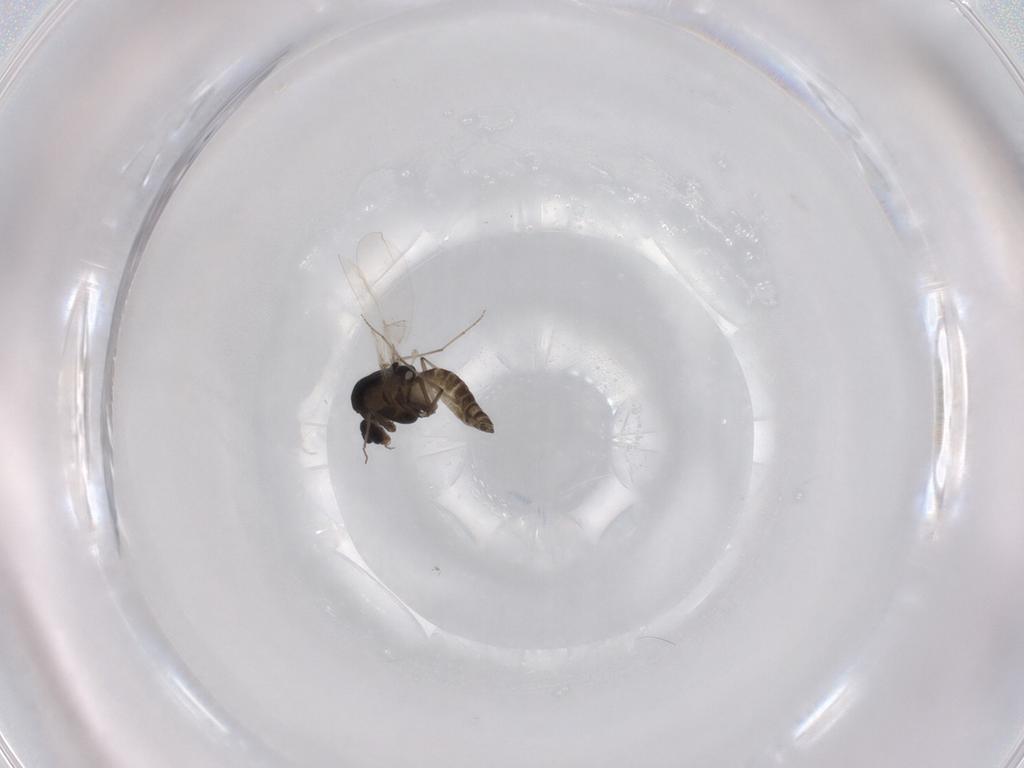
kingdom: Animalia
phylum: Arthropoda
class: Insecta
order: Diptera
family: Chironomidae
